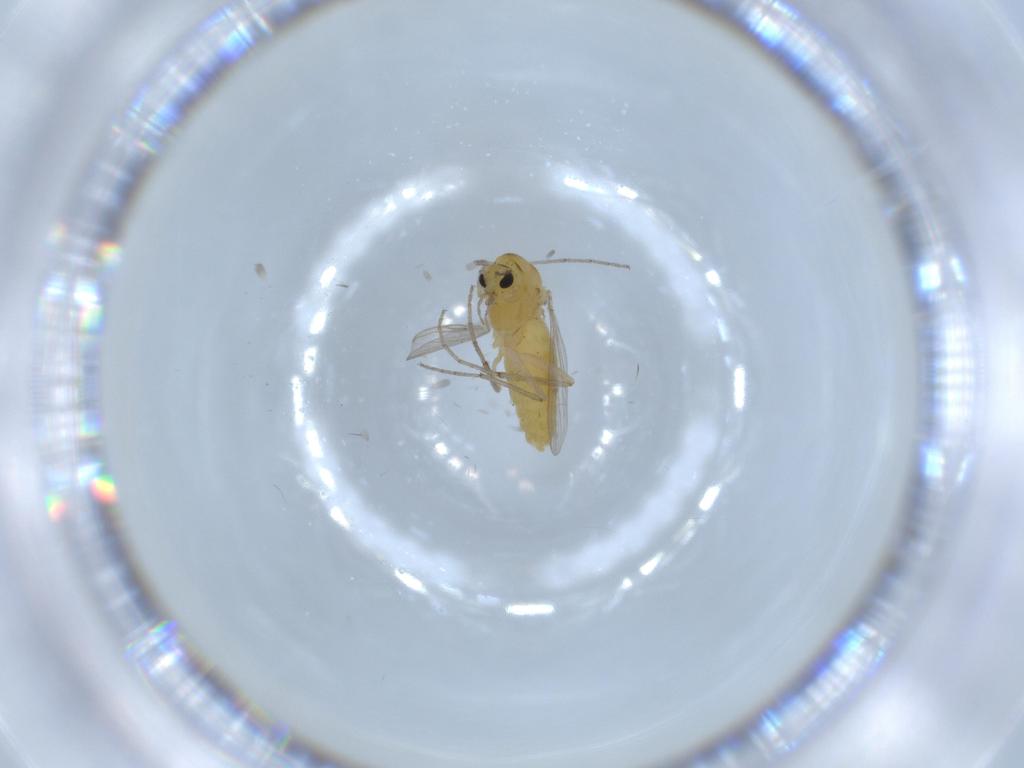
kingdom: Animalia
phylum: Arthropoda
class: Insecta
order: Diptera
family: Chironomidae
